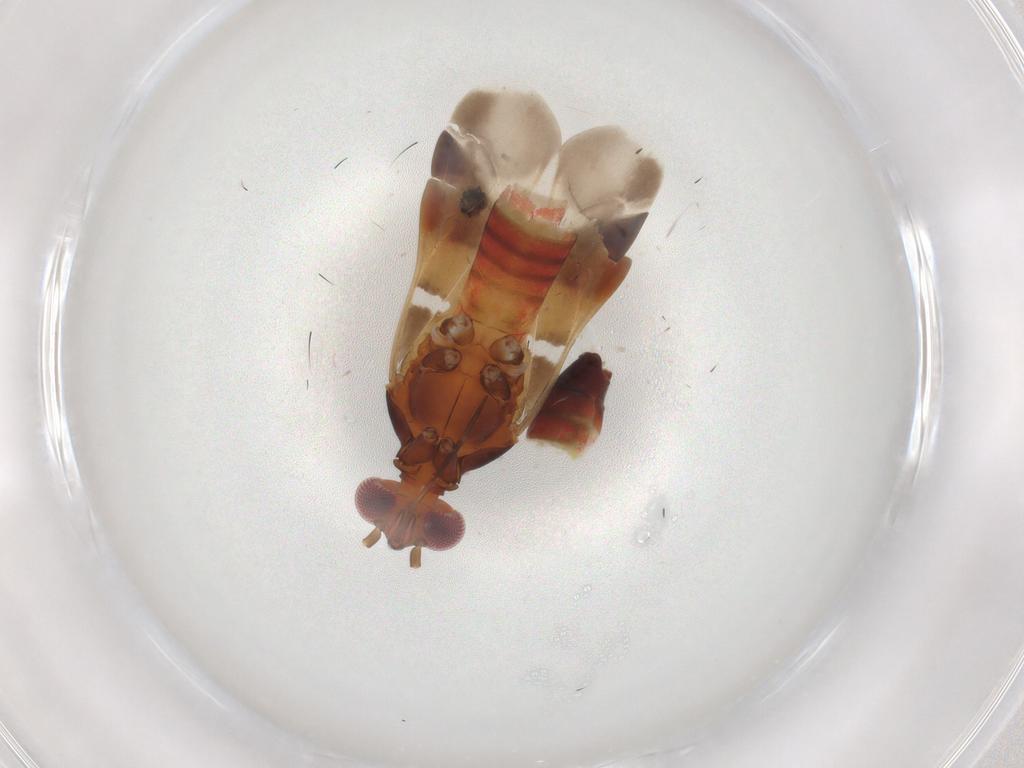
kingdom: Animalia
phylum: Arthropoda
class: Insecta
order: Hemiptera
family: Miridae
